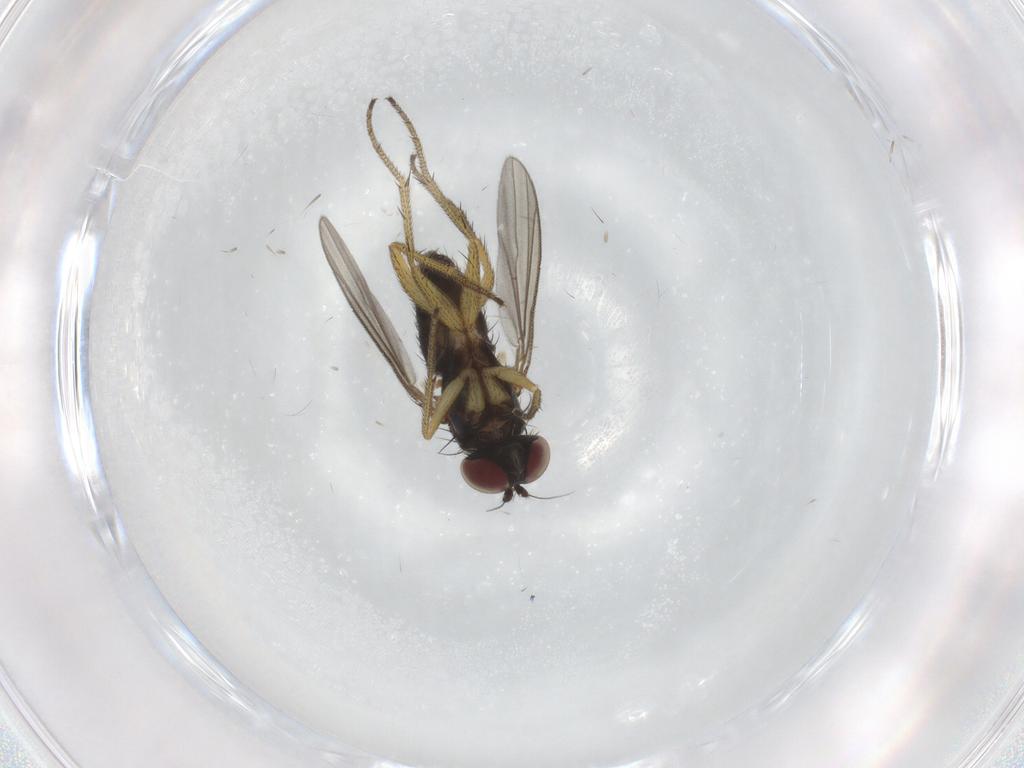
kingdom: Animalia
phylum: Arthropoda
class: Insecta
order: Diptera
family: Dolichopodidae
